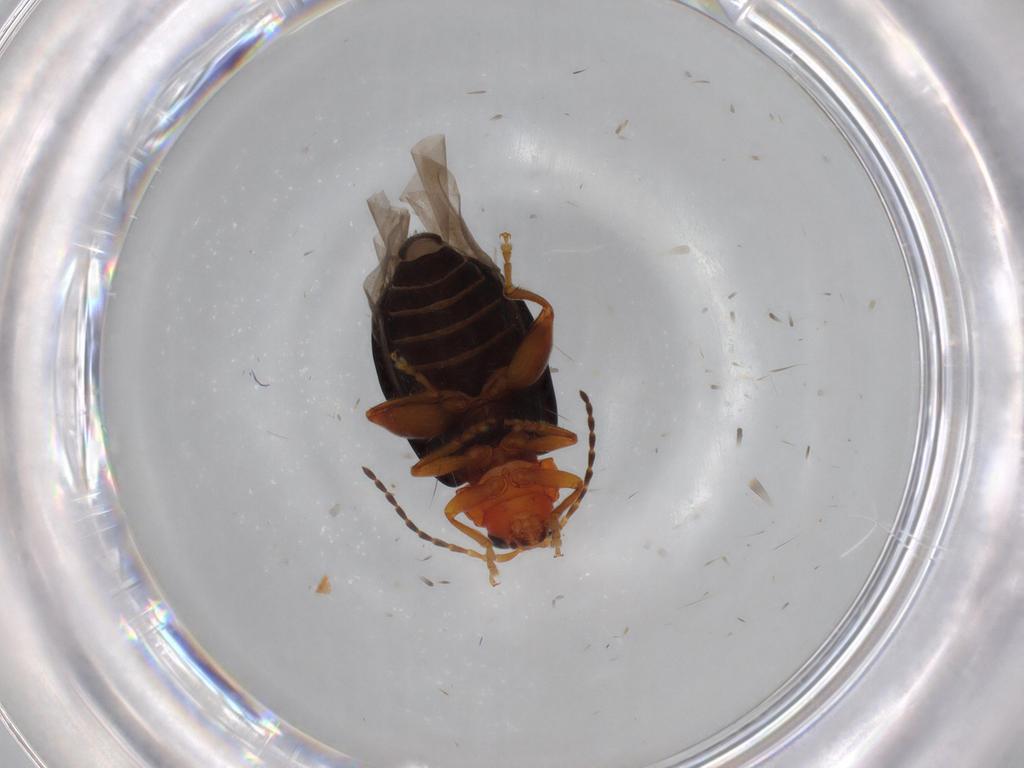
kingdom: Animalia
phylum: Arthropoda
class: Insecta
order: Coleoptera
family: Chrysomelidae
